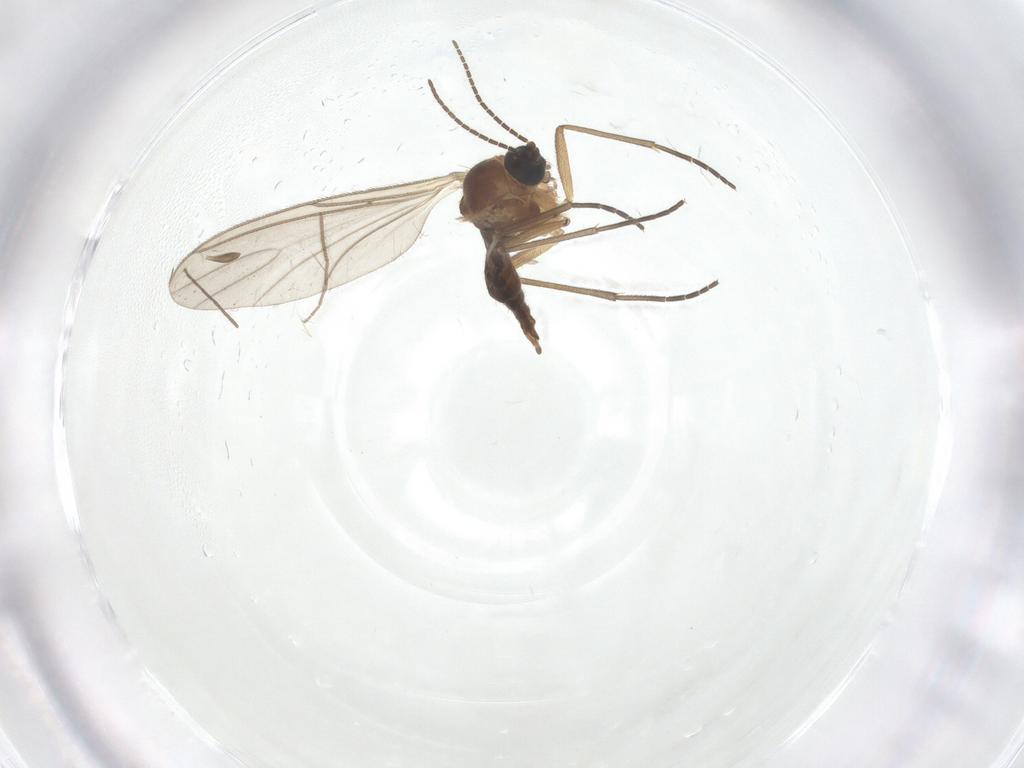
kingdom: Animalia
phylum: Arthropoda
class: Insecta
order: Diptera
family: Chironomidae
